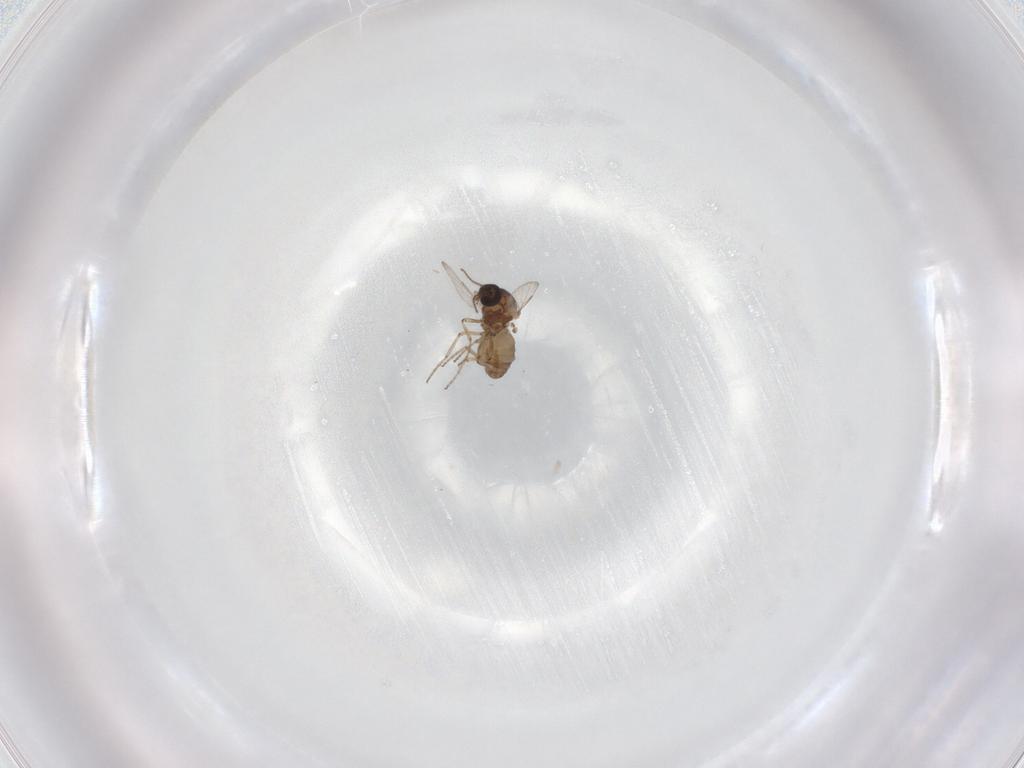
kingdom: Animalia
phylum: Arthropoda
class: Insecta
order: Diptera
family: Ceratopogonidae
